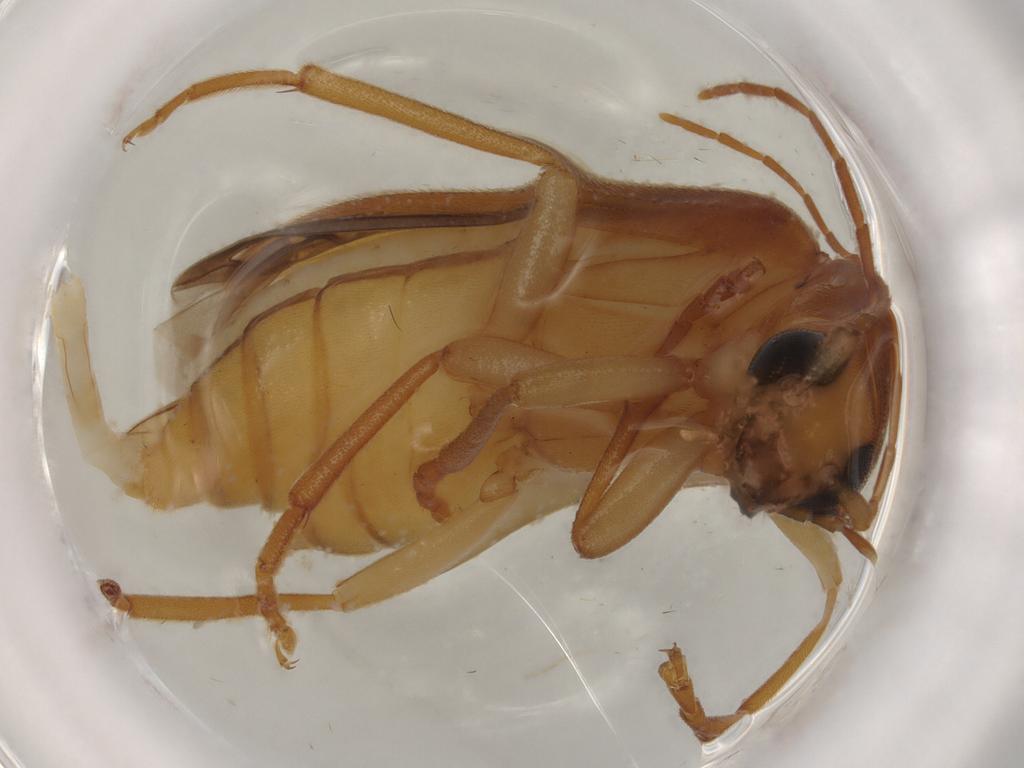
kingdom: Animalia
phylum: Arthropoda
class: Insecta
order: Coleoptera
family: Oedemeridae
